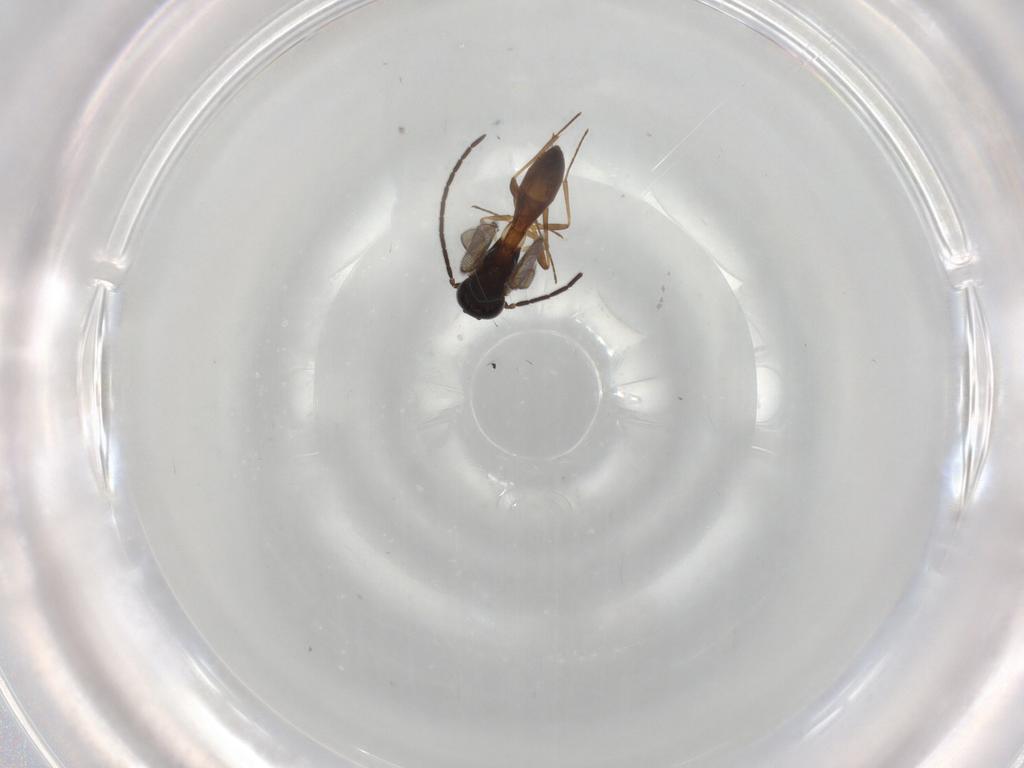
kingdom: Animalia
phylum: Arthropoda
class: Insecta
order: Hymenoptera
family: Scelionidae
